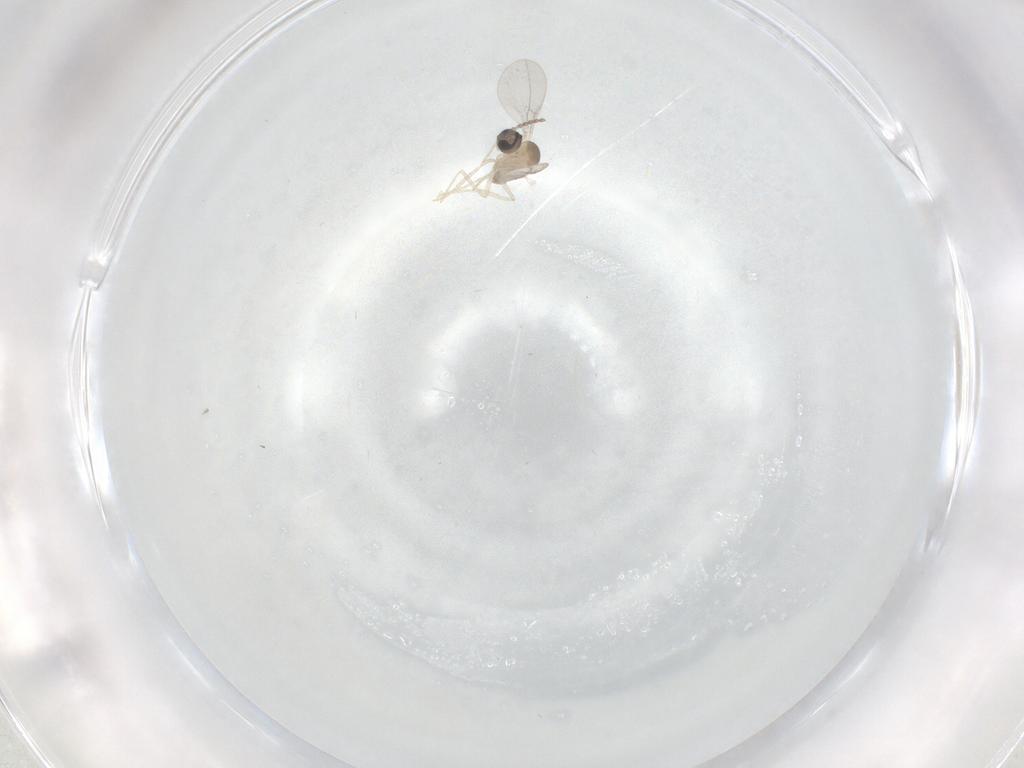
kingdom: Animalia
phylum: Arthropoda
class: Insecta
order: Diptera
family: Cecidomyiidae
